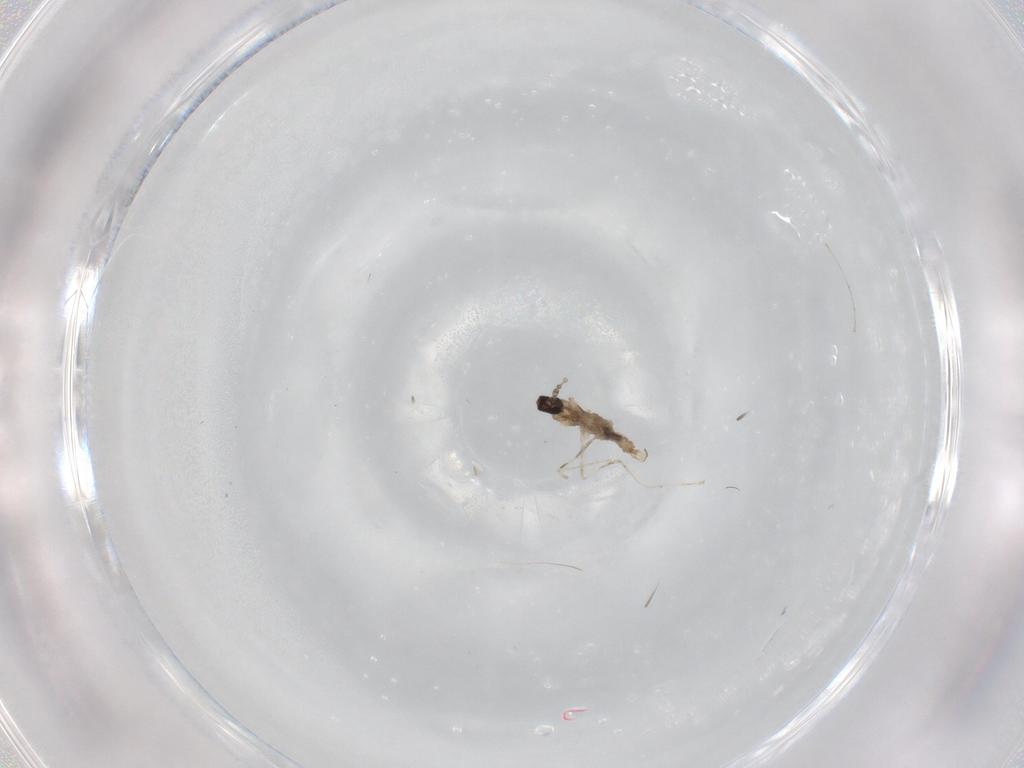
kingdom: Animalia
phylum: Arthropoda
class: Insecta
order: Diptera
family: Cecidomyiidae
